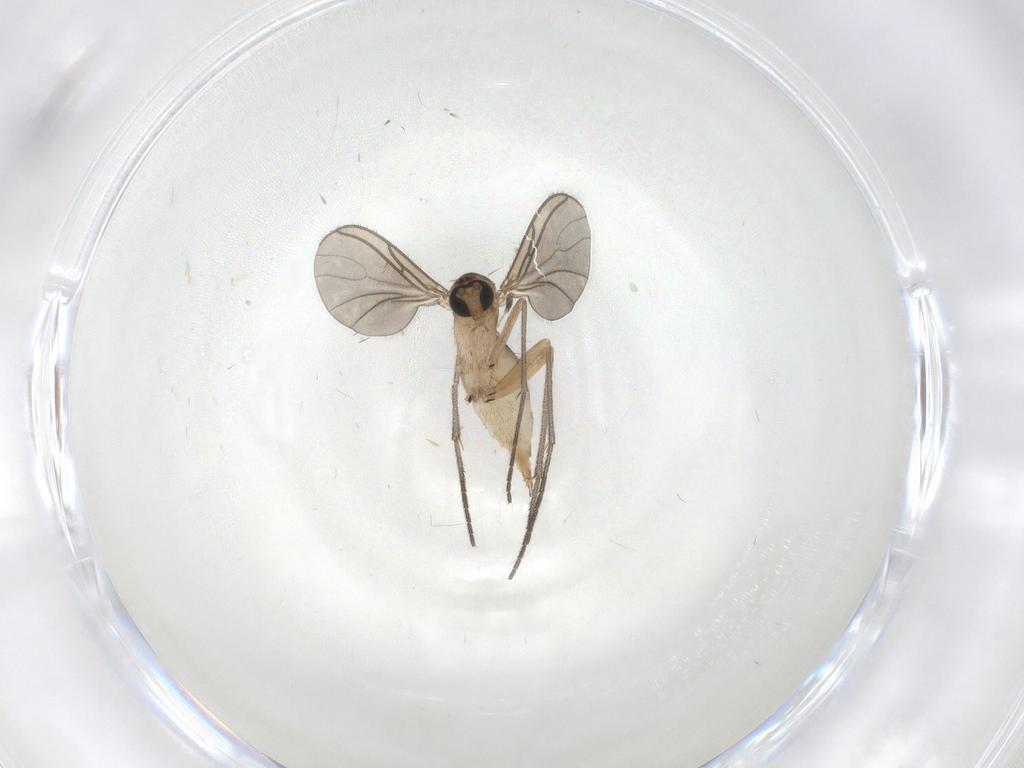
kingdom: Animalia
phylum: Arthropoda
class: Insecta
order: Diptera
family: Sciaridae
